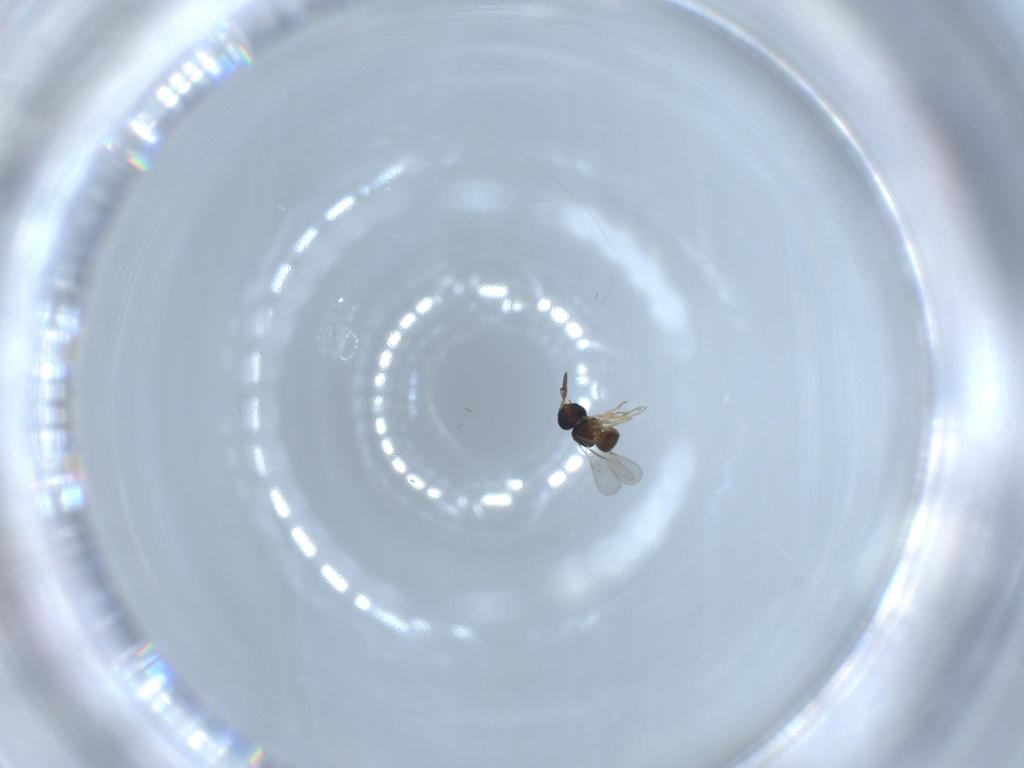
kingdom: Animalia
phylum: Arthropoda
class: Insecta
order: Hymenoptera
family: Scelionidae
